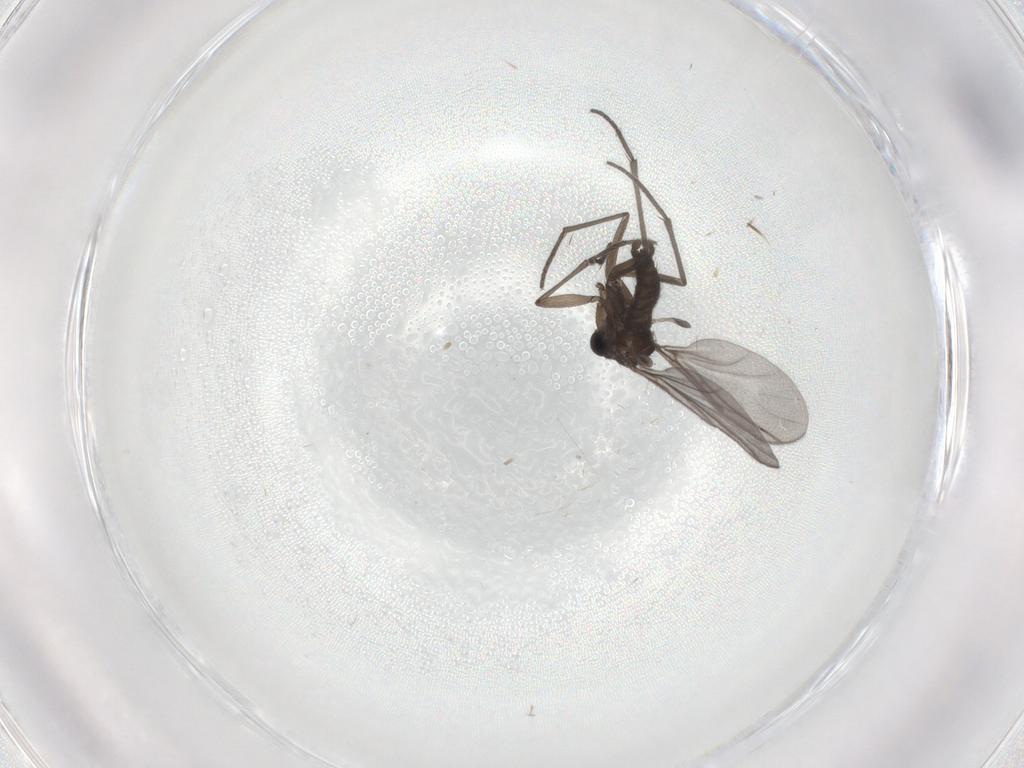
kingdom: Animalia
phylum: Arthropoda
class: Insecta
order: Diptera
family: Sciaridae
